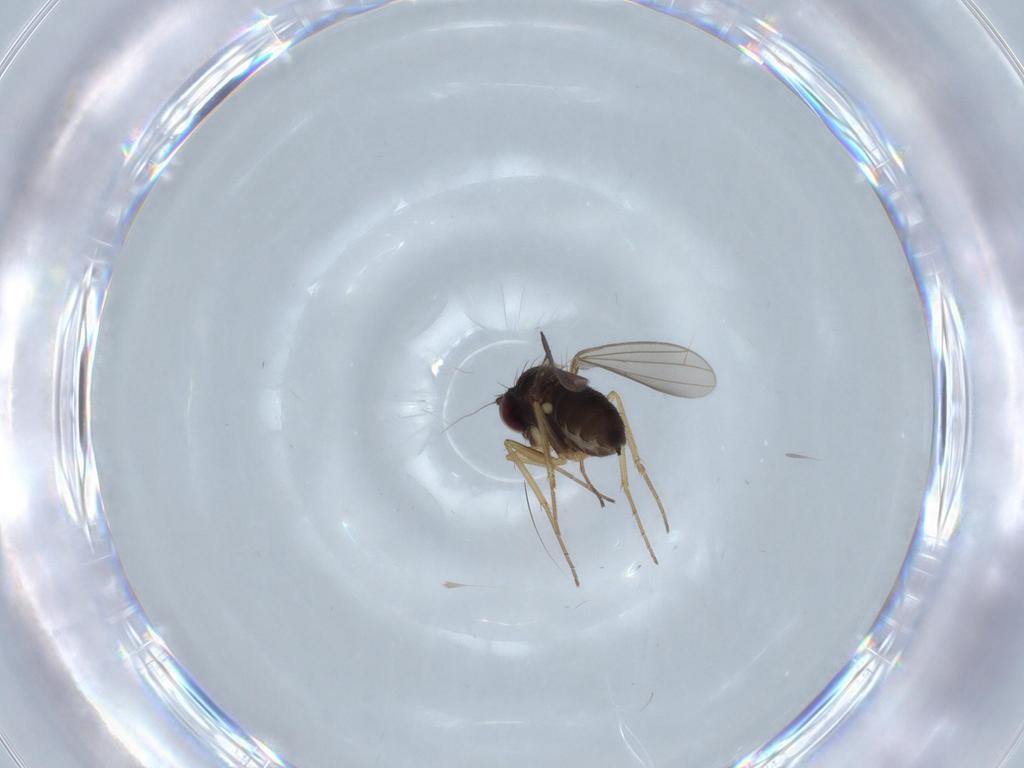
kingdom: Animalia
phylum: Arthropoda
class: Insecta
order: Diptera
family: Dolichopodidae
